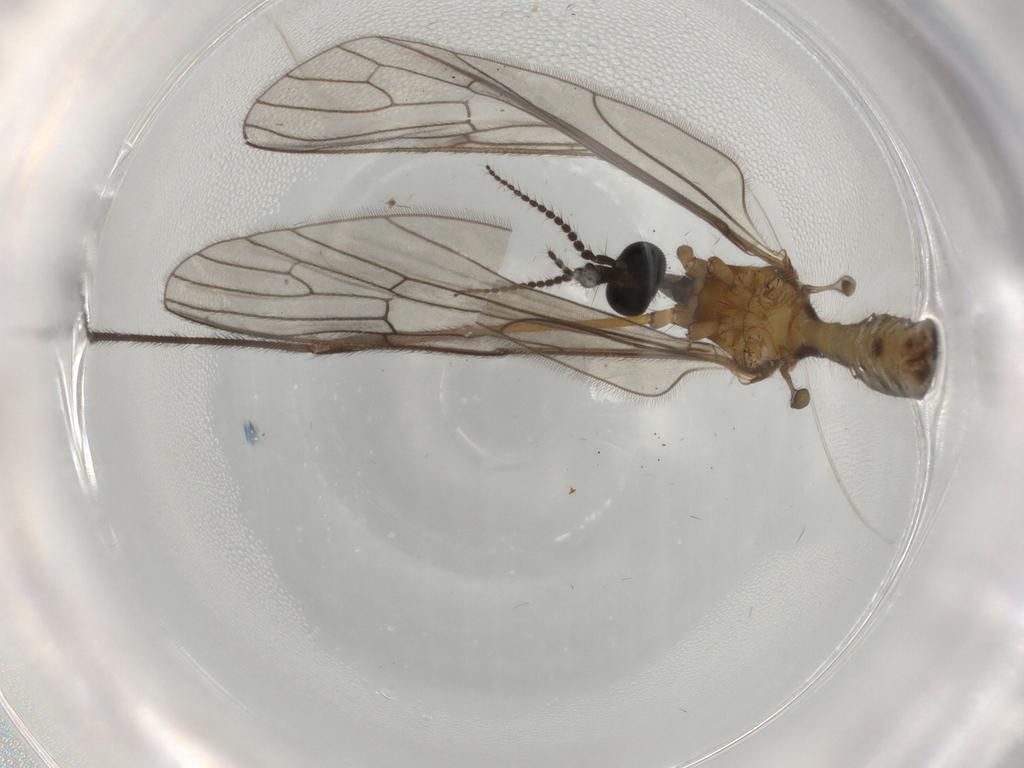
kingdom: Animalia
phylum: Arthropoda
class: Insecta
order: Diptera
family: Phoridae
